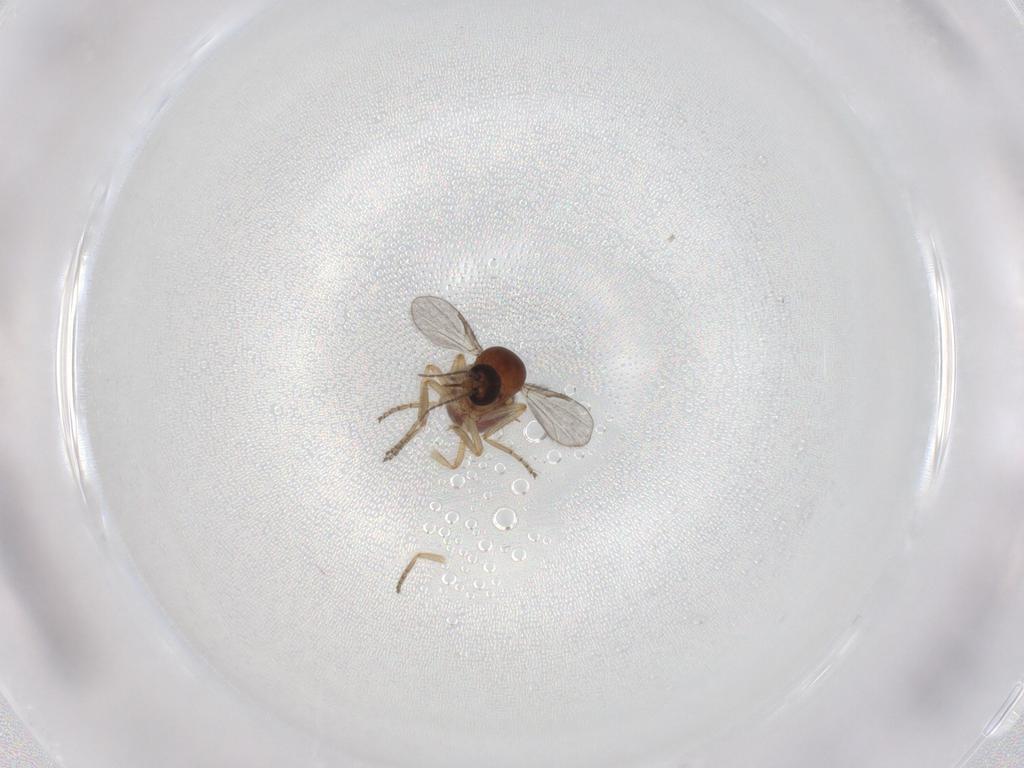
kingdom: Animalia
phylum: Arthropoda
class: Insecta
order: Diptera
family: Ceratopogonidae
